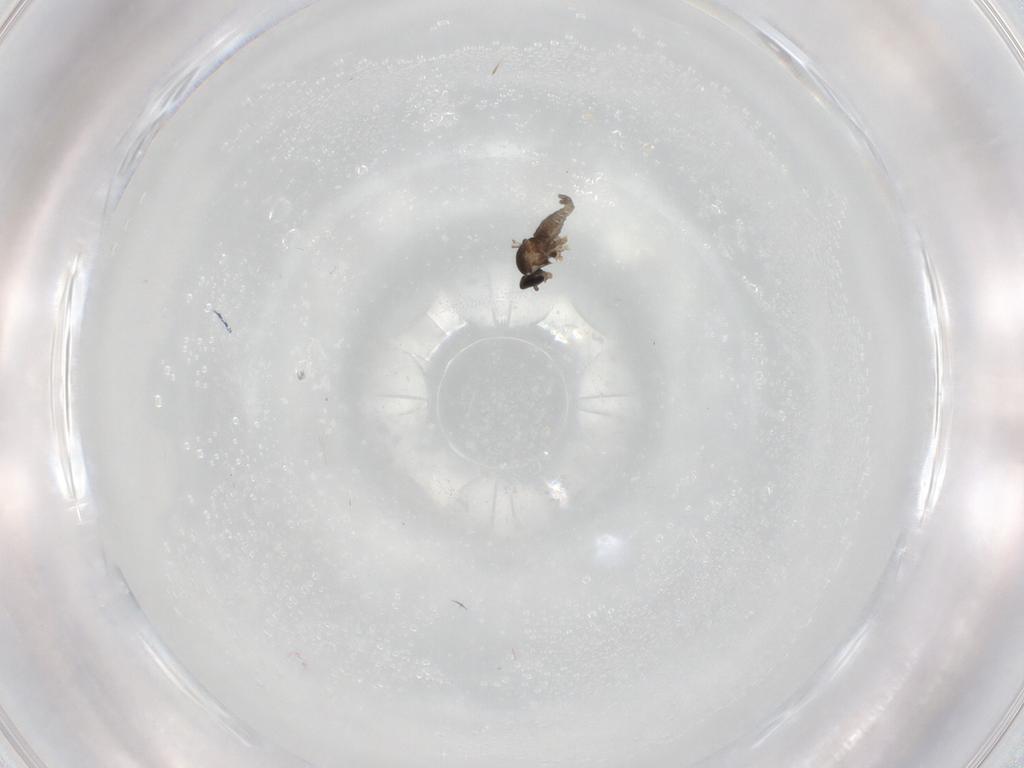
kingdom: Animalia
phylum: Arthropoda
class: Insecta
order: Diptera
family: Cecidomyiidae
